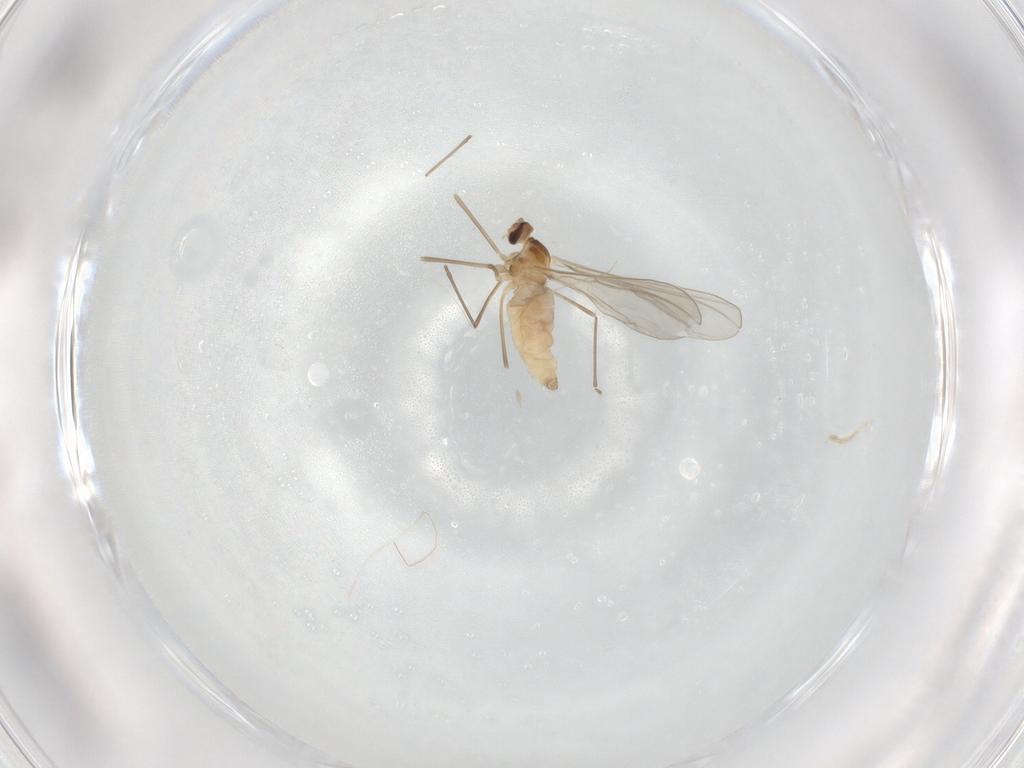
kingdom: Animalia
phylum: Arthropoda
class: Insecta
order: Diptera
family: Cecidomyiidae
